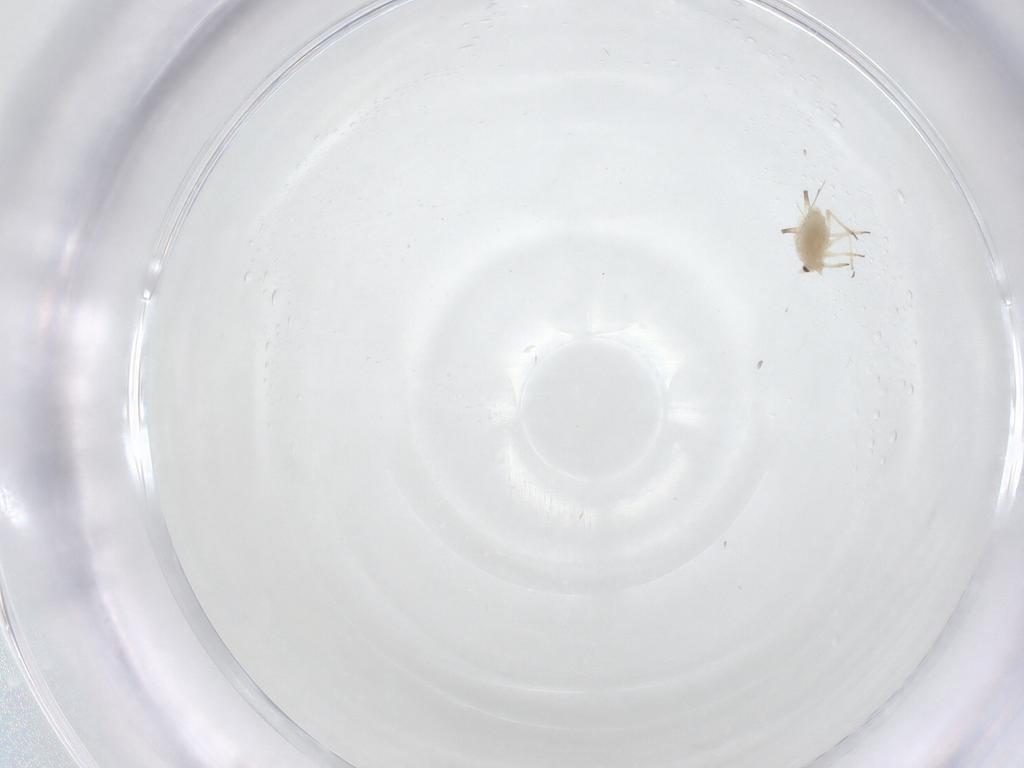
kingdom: Animalia
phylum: Arthropoda
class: Insecta
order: Hemiptera
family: Aphididae
